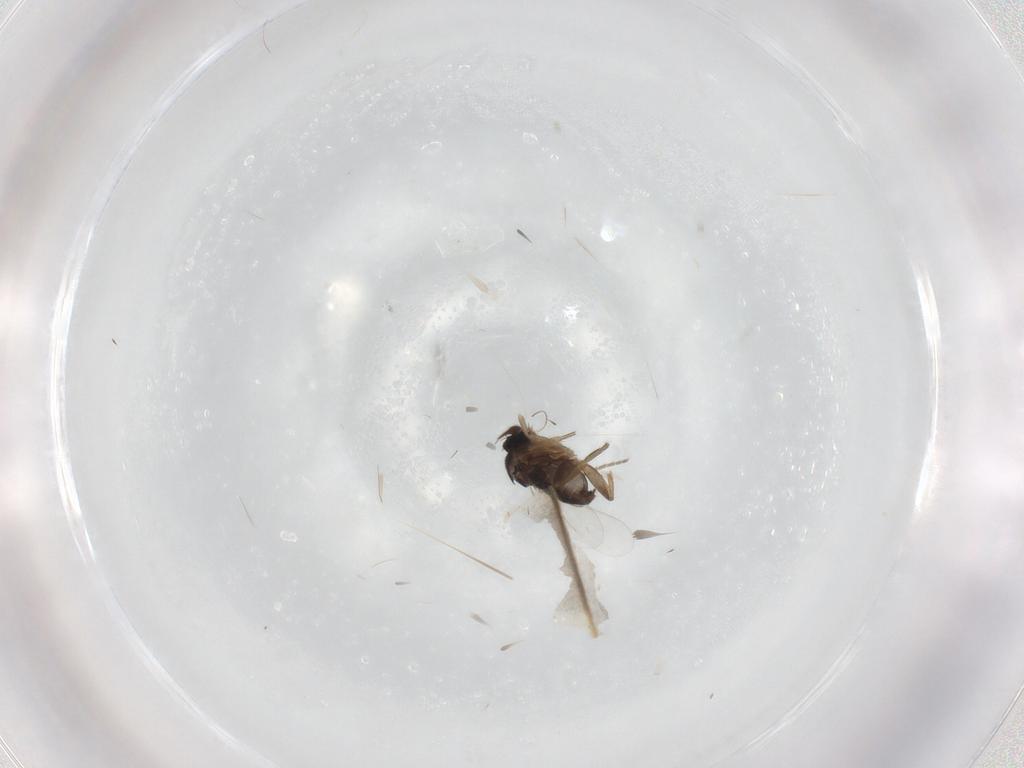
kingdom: Animalia
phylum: Arthropoda
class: Insecta
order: Diptera
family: Phoridae
